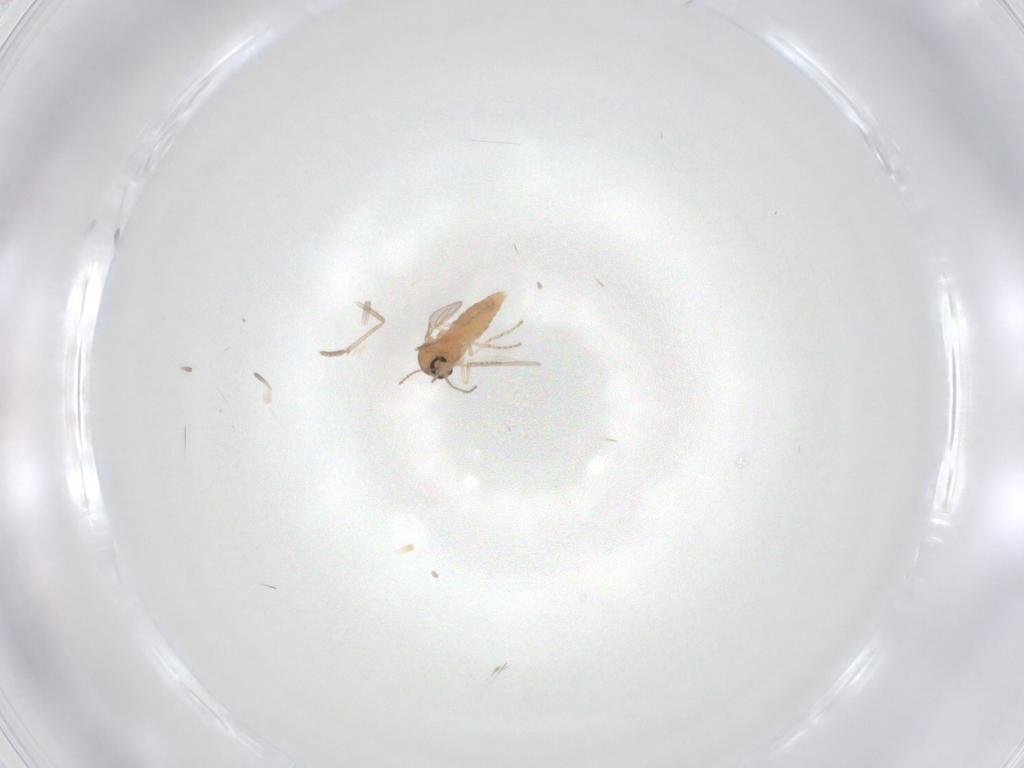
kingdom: Animalia
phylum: Arthropoda
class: Insecta
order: Diptera
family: Ceratopogonidae
